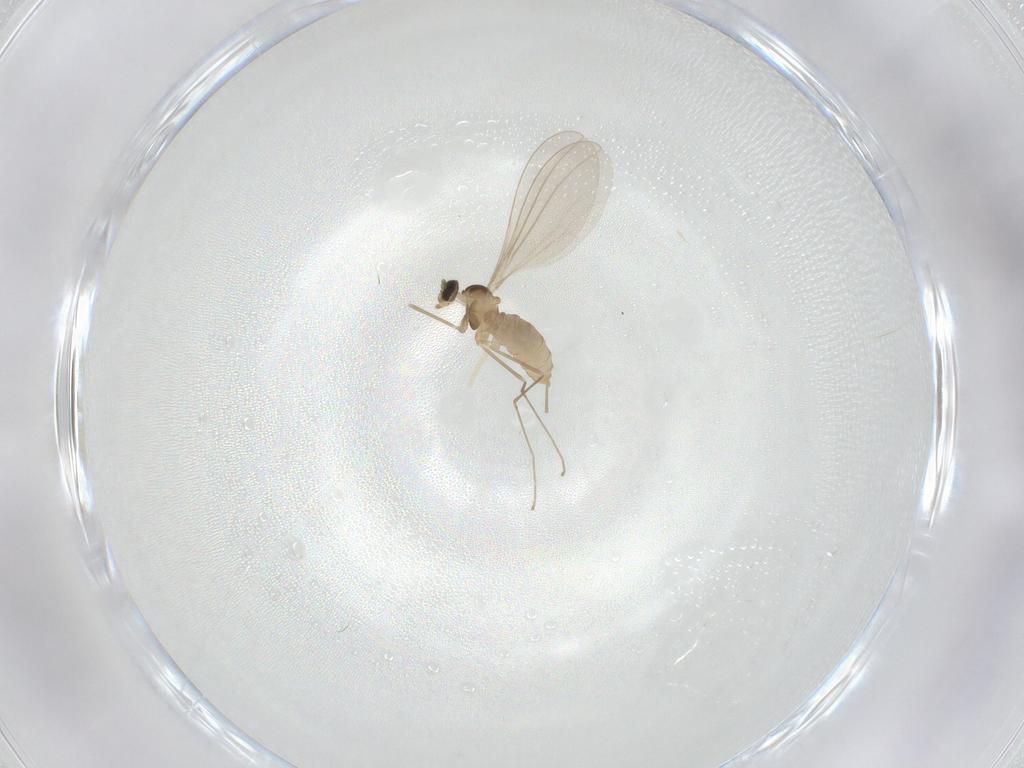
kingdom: Animalia
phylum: Arthropoda
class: Insecta
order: Diptera
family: Cecidomyiidae
